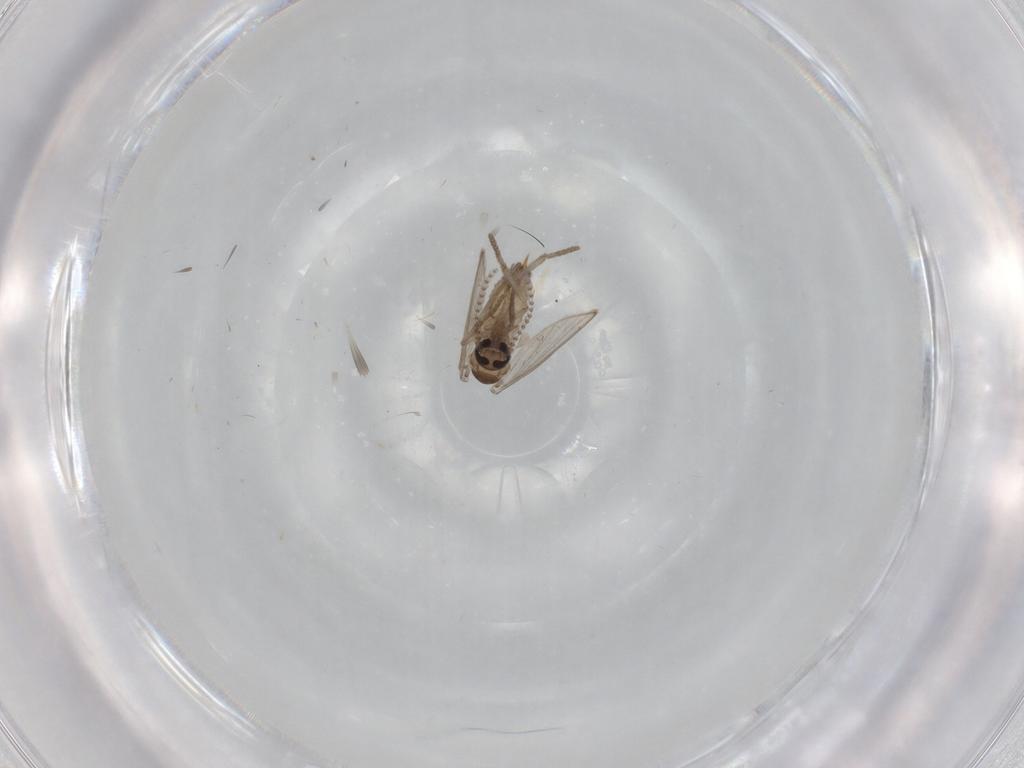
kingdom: Animalia
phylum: Arthropoda
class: Insecta
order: Diptera
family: Psychodidae
